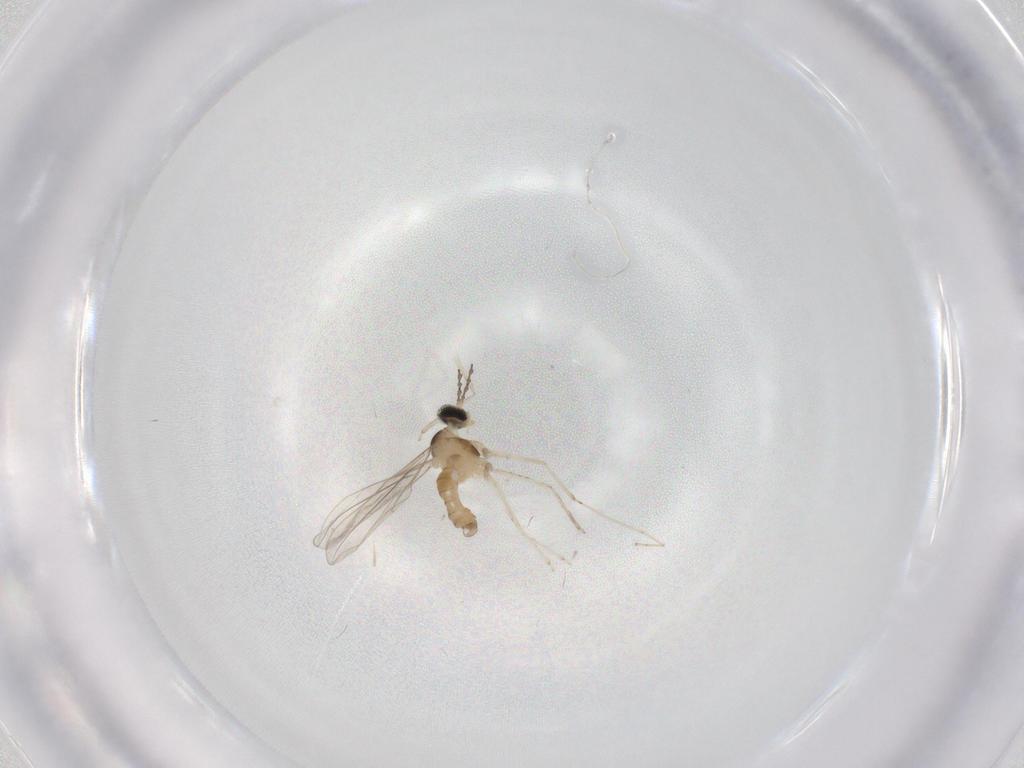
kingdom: Animalia
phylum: Arthropoda
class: Insecta
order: Diptera
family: Cecidomyiidae
